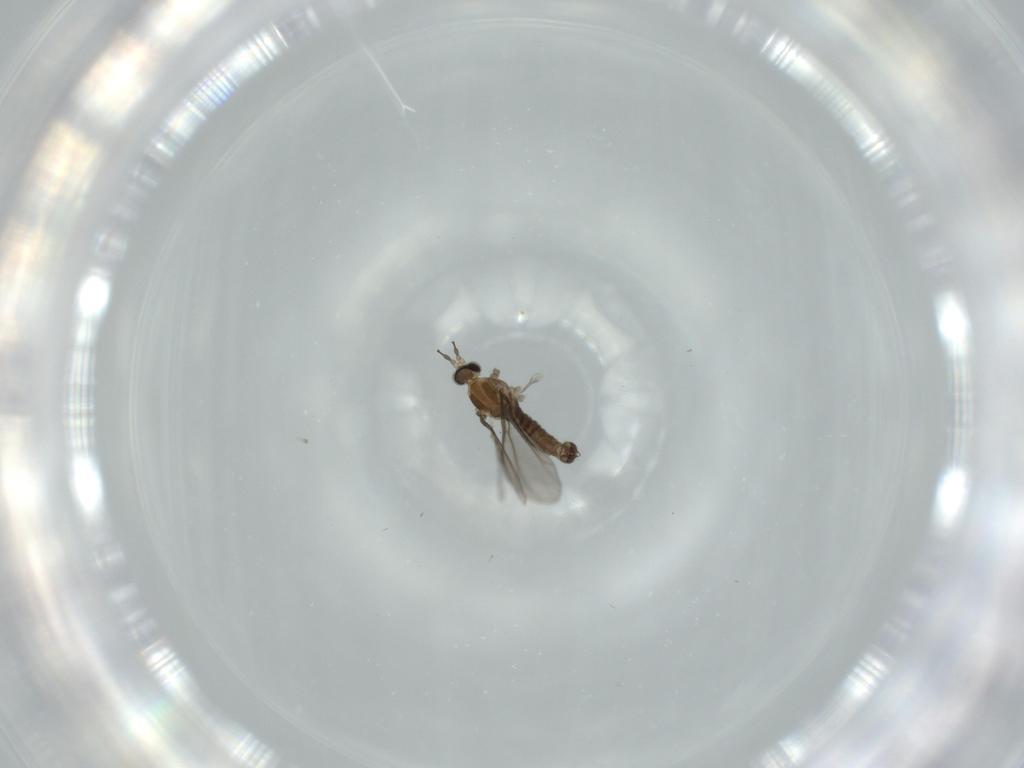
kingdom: Animalia
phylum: Arthropoda
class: Insecta
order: Diptera
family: Cecidomyiidae
